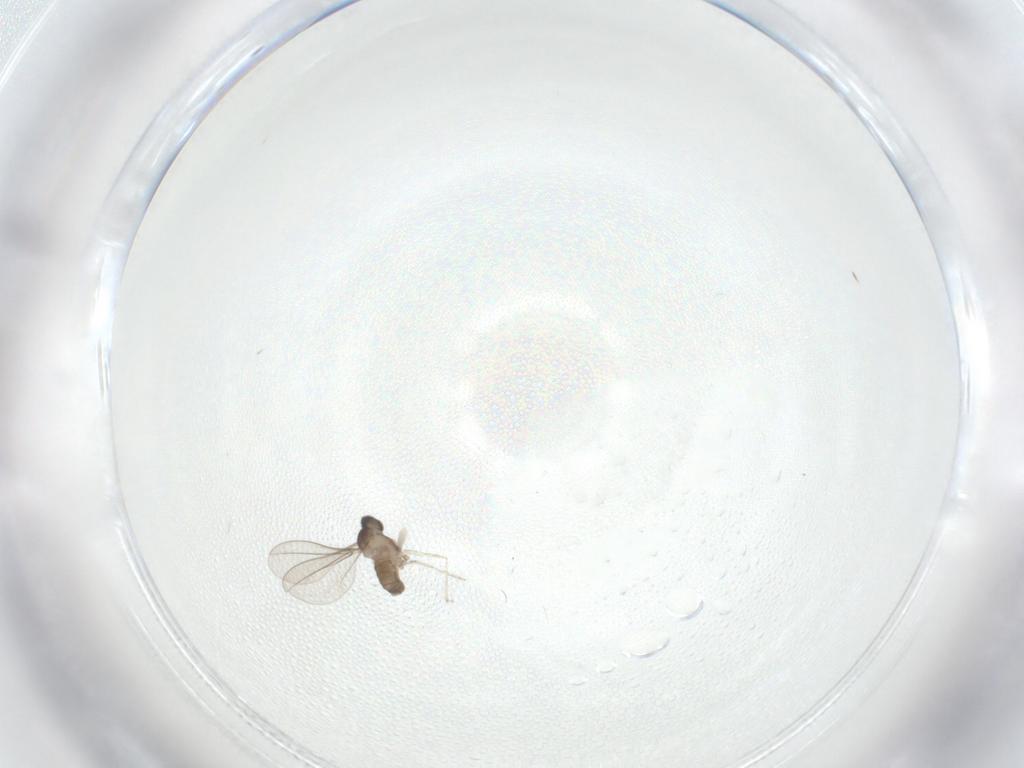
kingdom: Animalia
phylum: Arthropoda
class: Insecta
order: Diptera
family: Cecidomyiidae
